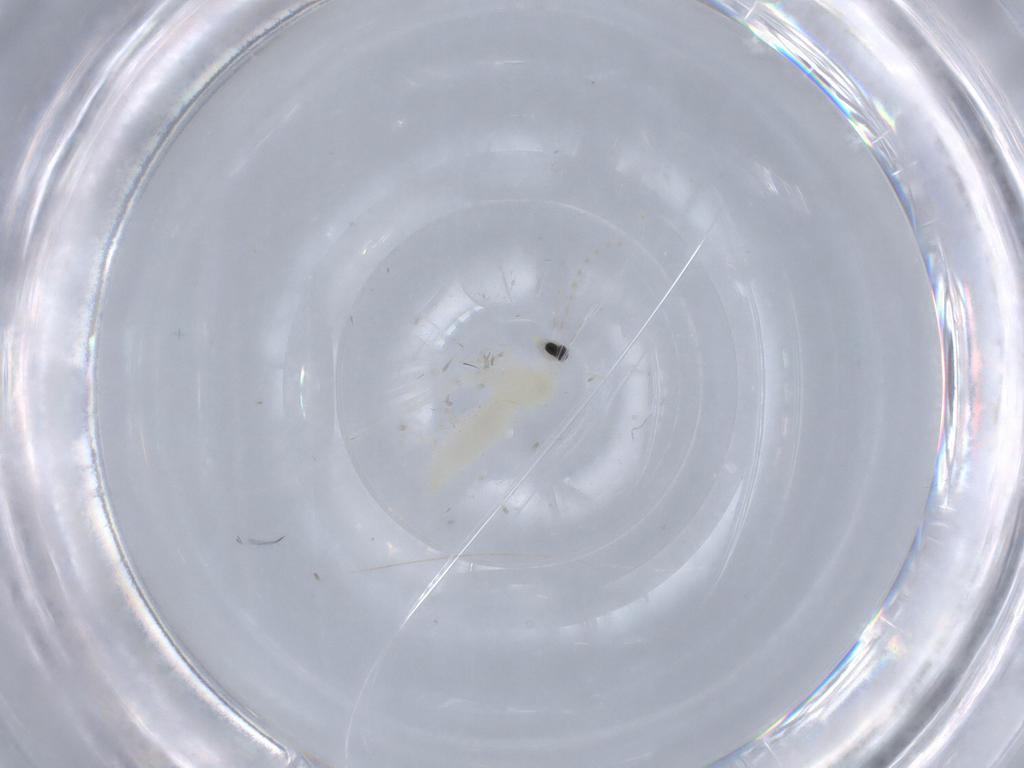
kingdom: Animalia
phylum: Arthropoda
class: Insecta
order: Diptera
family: Cecidomyiidae
